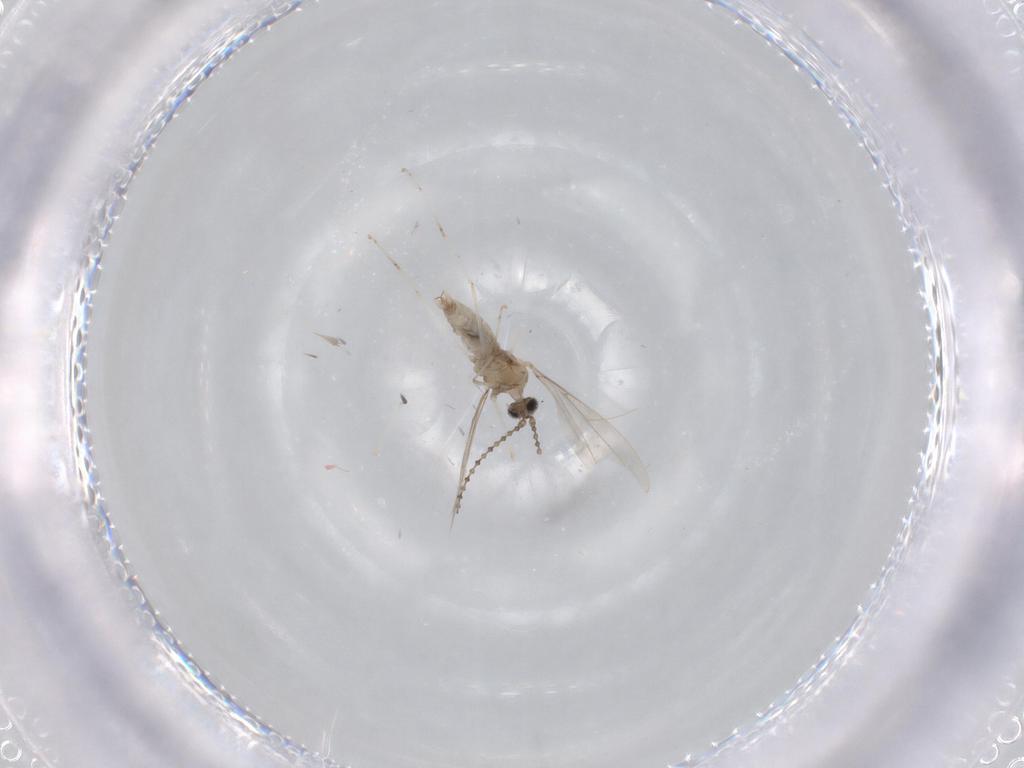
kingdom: Animalia
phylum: Arthropoda
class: Insecta
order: Diptera
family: Cecidomyiidae
